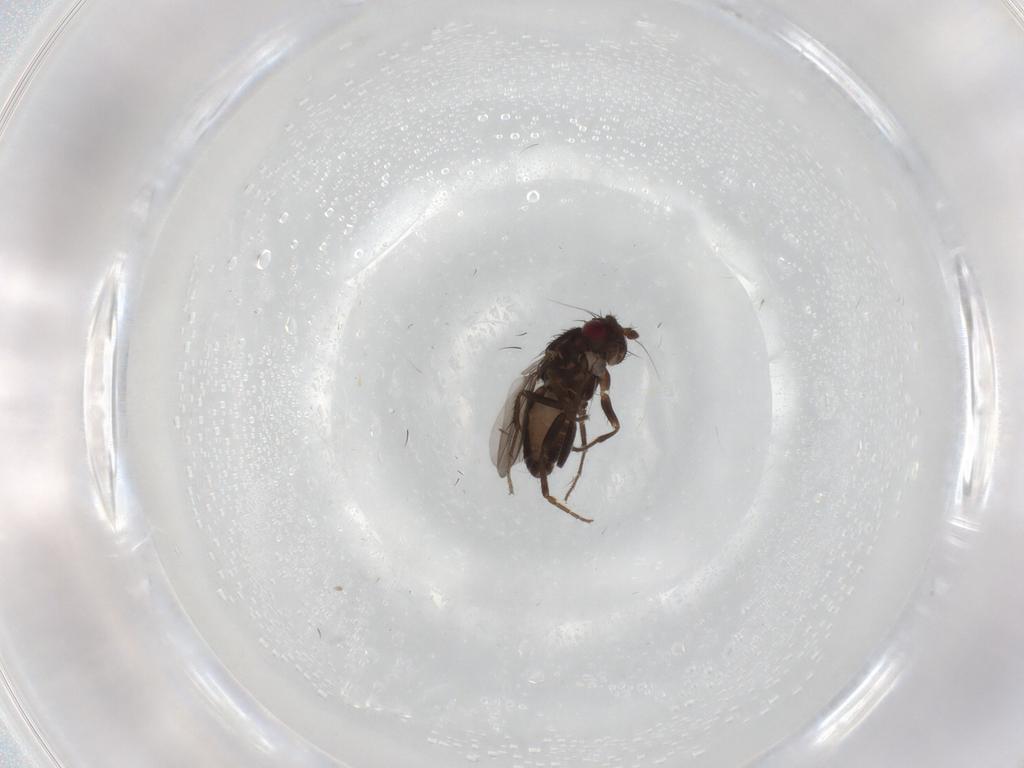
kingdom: Animalia
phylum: Arthropoda
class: Insecta
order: Diptera
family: Sphaeroceridae
